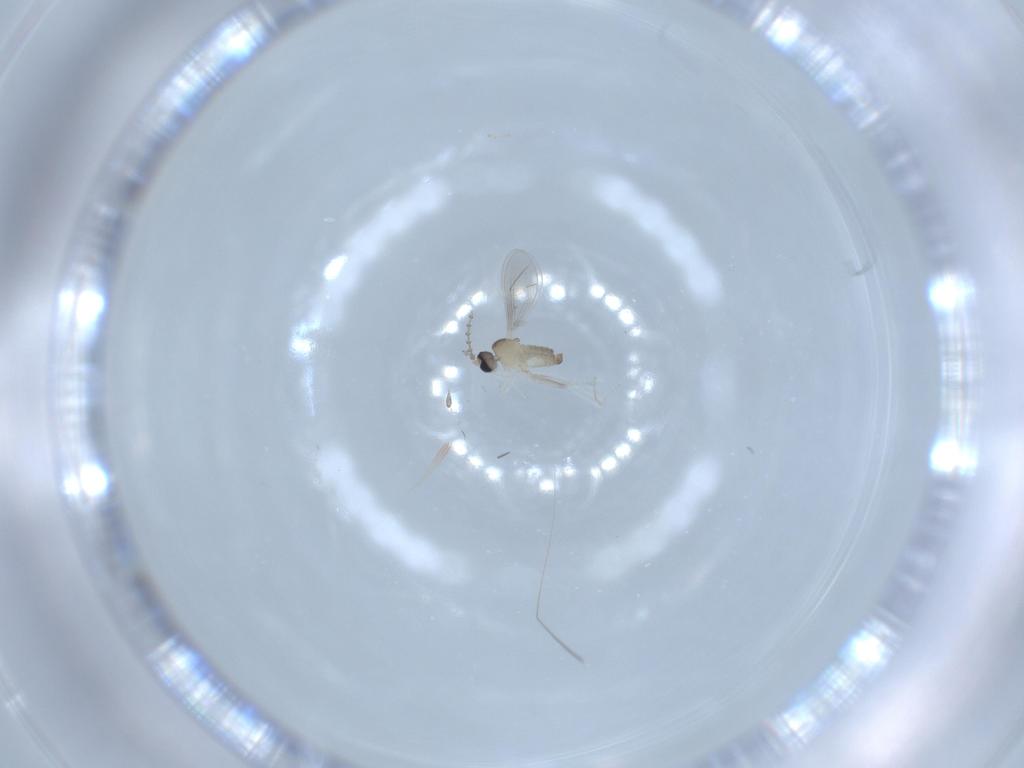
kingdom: Animalia
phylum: Arthropoda
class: Insecta
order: Diptera
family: Cecidomyiidae
